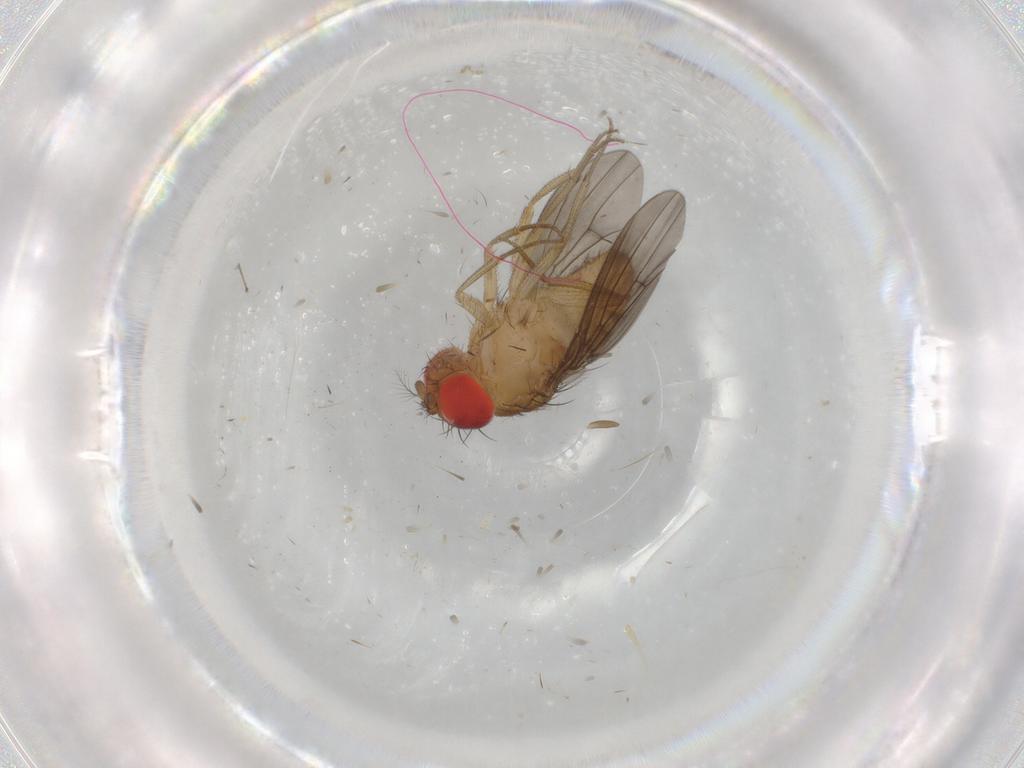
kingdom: Animalia
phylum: Arthropoda
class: Insecta
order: Diptera
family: Drosophilidae
